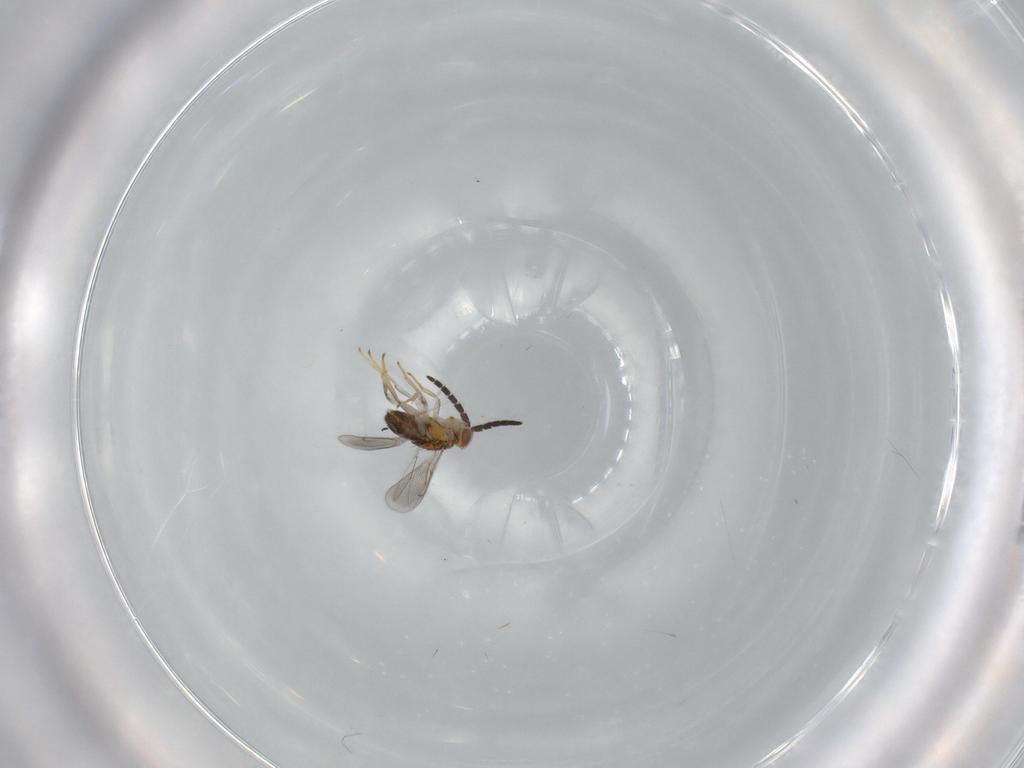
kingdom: Animalia
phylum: Arthropoda
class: Insecta
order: Hymenoptera
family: Aphelinidae
